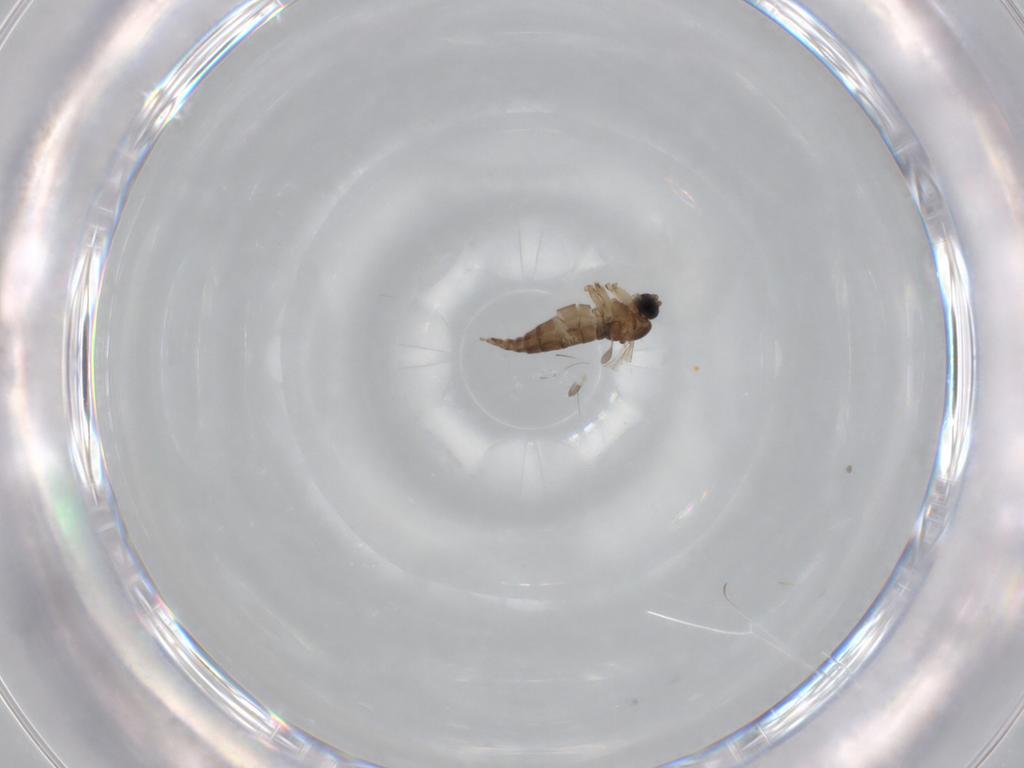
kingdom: Animalia
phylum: Arthropoda
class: Insecta
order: Diptera
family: Sciaridae
